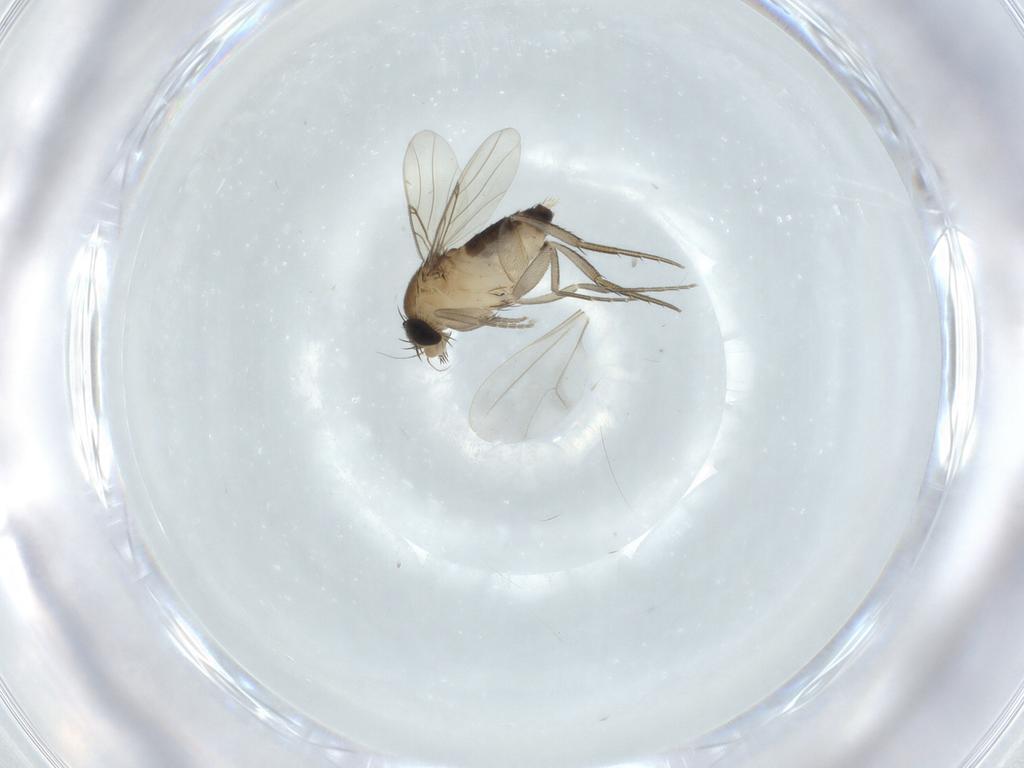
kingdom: Animalia
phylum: Arthropoda
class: Insecta
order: Diptera
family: Phoridae
